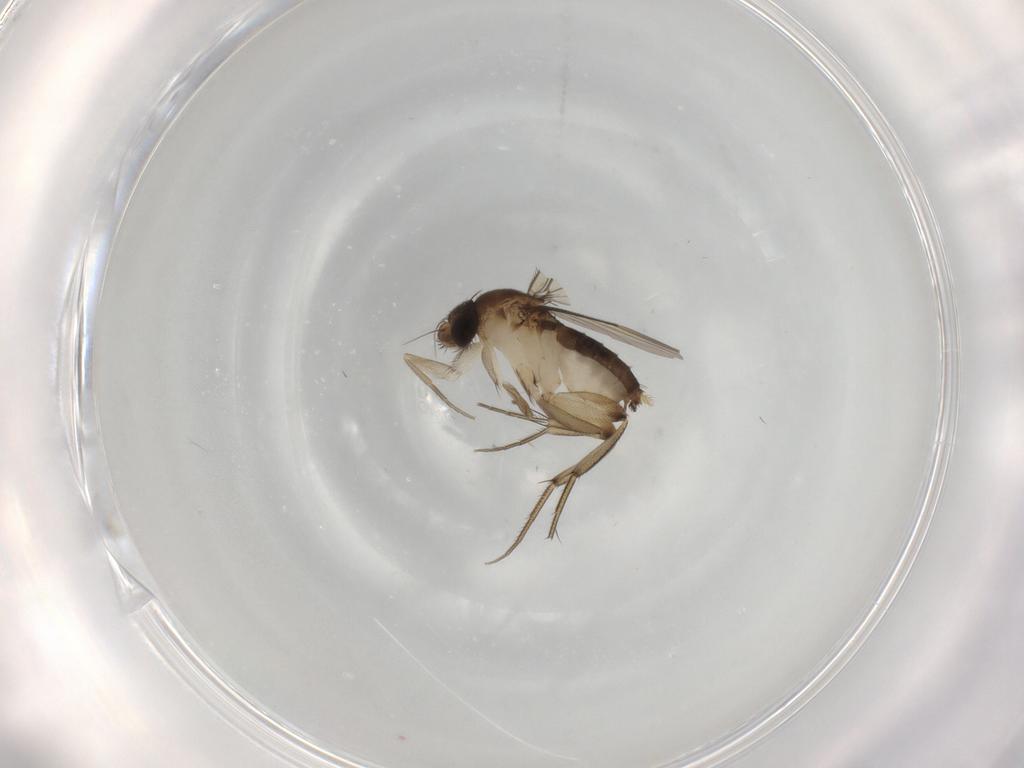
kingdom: Animalia
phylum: Arthropoda
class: Insecta
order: Diptera
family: Phoridae
